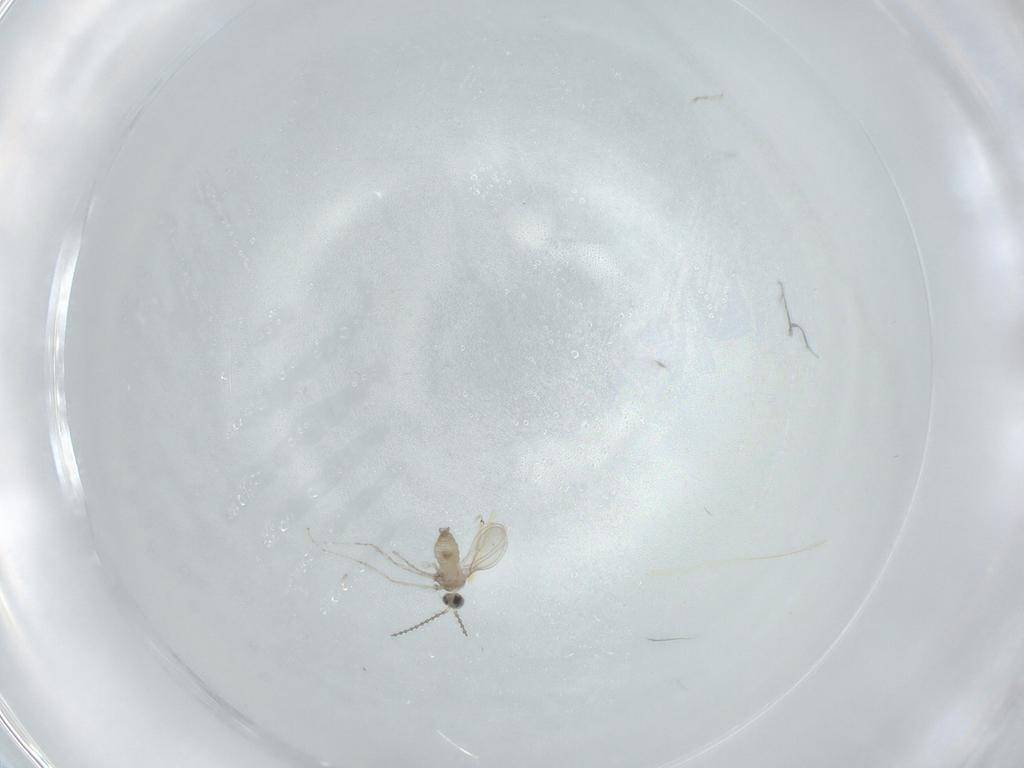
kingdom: Animalia
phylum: Arthropoda
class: Insecta
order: Diptera
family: Cecidomyiidae
